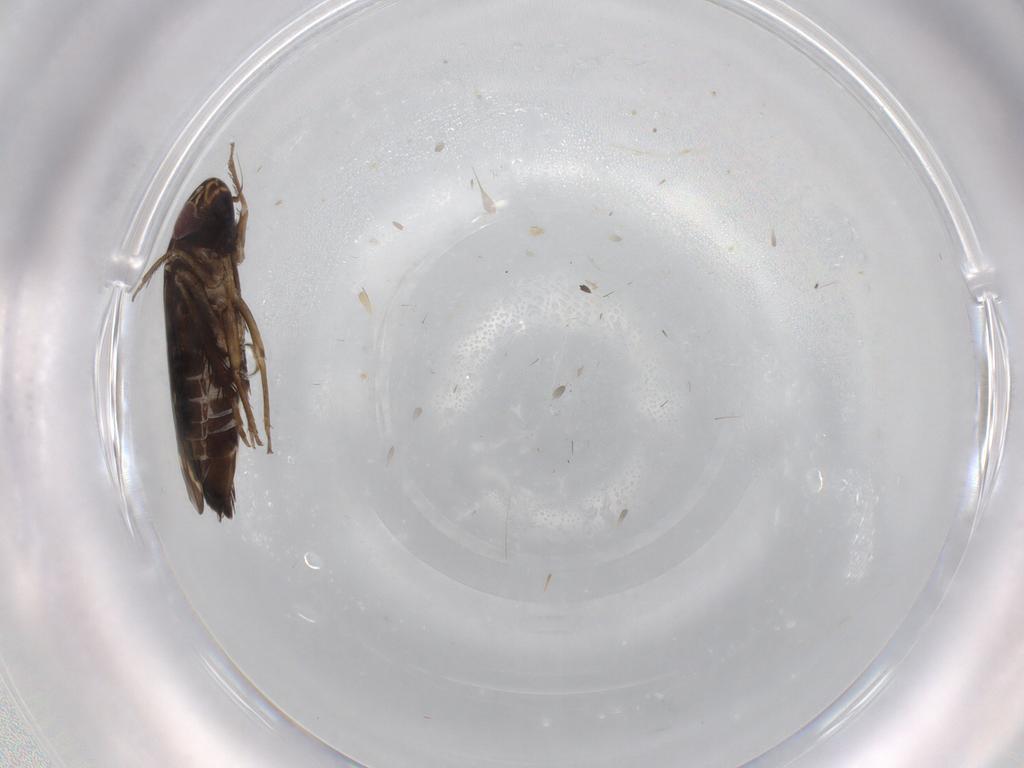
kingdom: Animalia
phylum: Arthropoda
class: Insecta
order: Hemiptera
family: Cicadellidae
